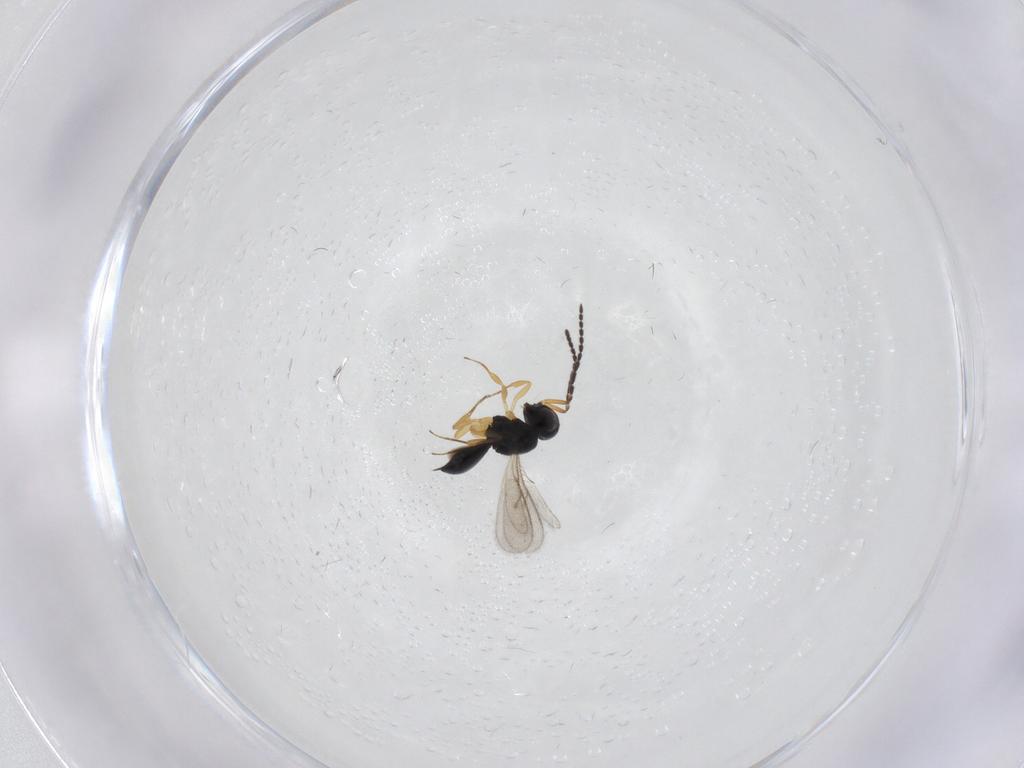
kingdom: Animalia
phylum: Arthropoda
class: Insecta
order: Hymenoptera
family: Scelionidae
